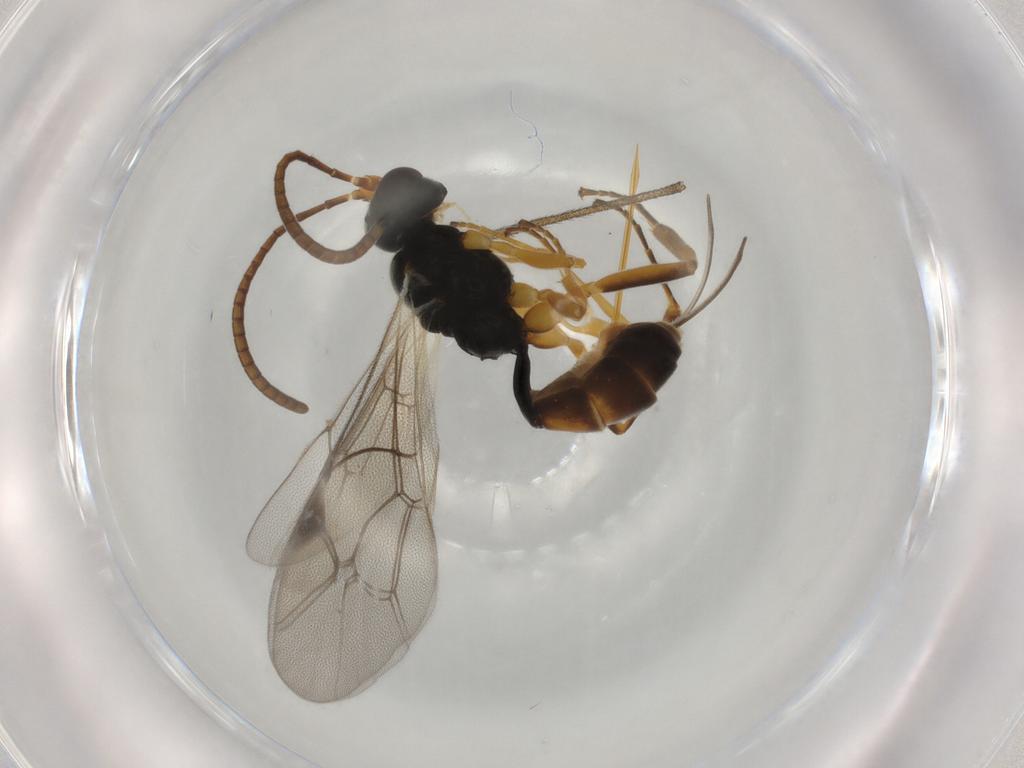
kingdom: Animalia
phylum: Arthropoda
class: Insecta
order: Hymenoptera
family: Ichneumonidae
